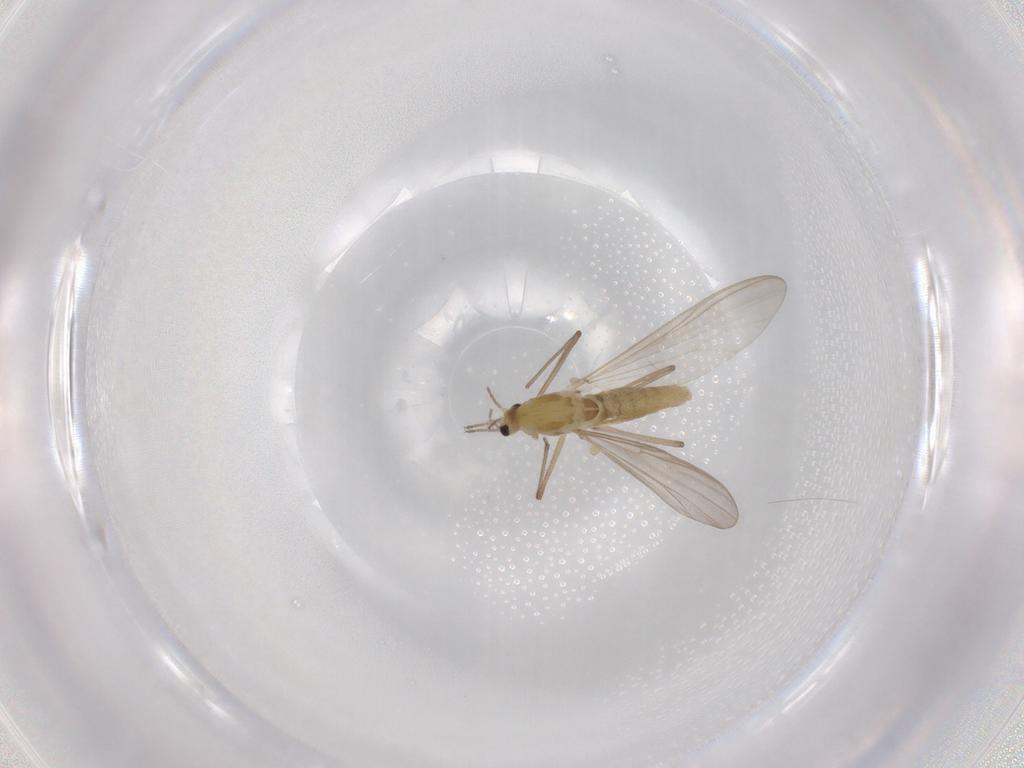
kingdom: Animalia
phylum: Arthropoda
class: Insecta
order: Diptera
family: Chironomidae
